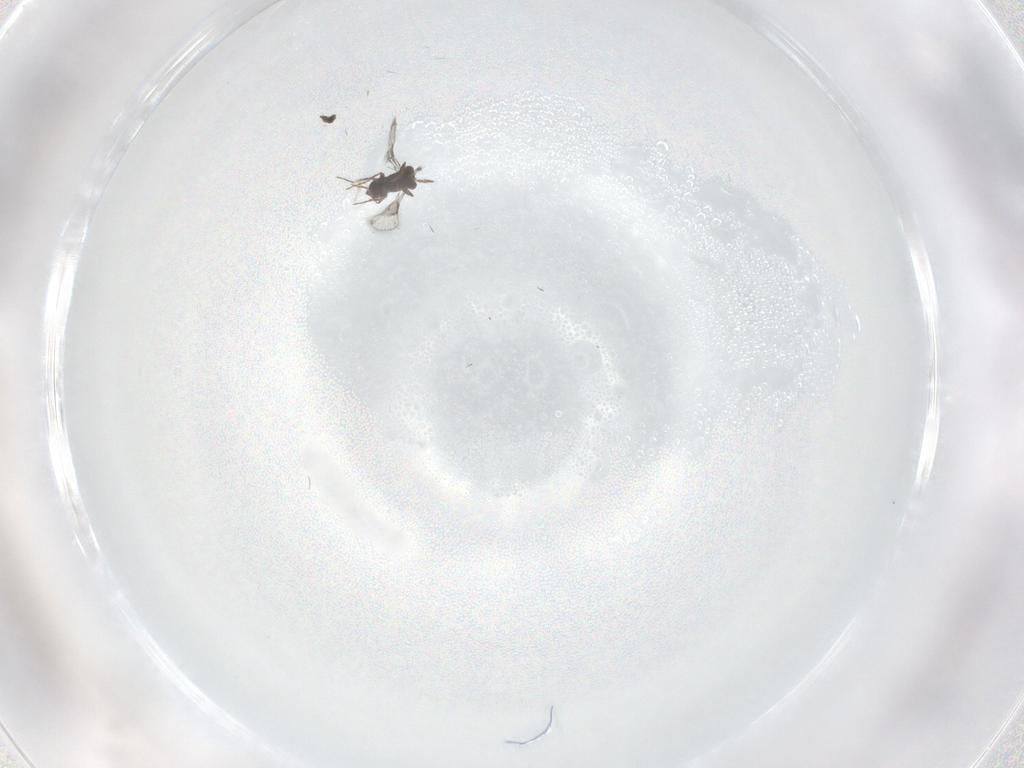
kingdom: Animalia
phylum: Arthropoda
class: Insecta
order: Hymenoptera
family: Trichogrammatidae
